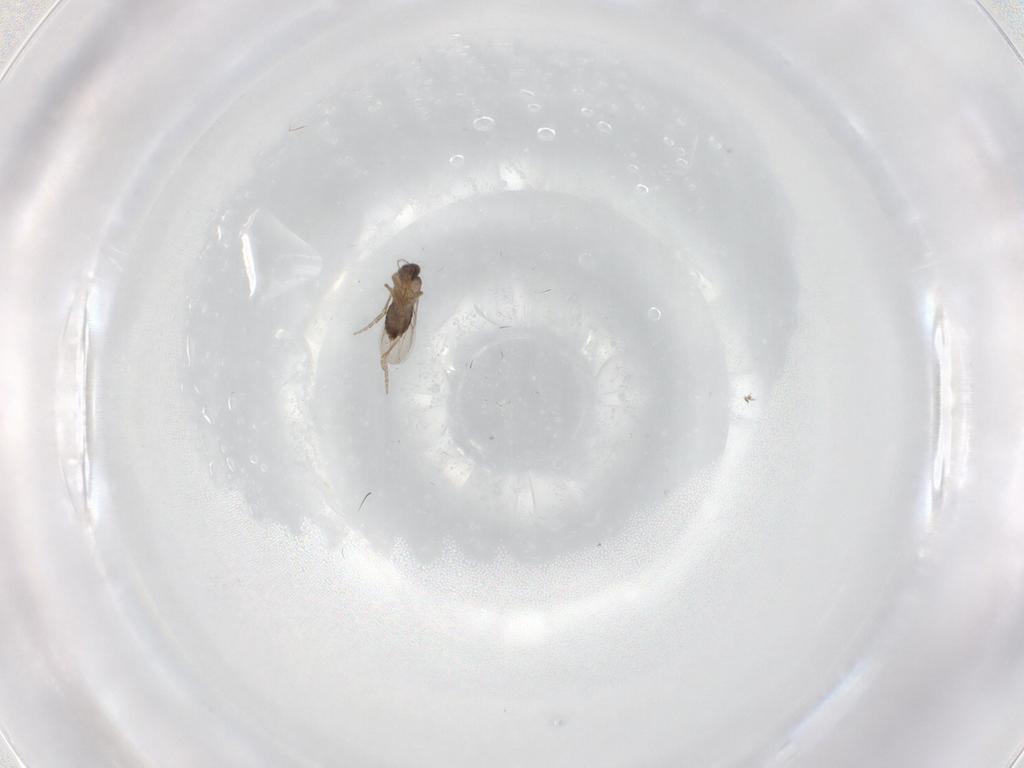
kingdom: Animalia
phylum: Arthropoda
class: Insecta
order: Diptera
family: Phoridae
